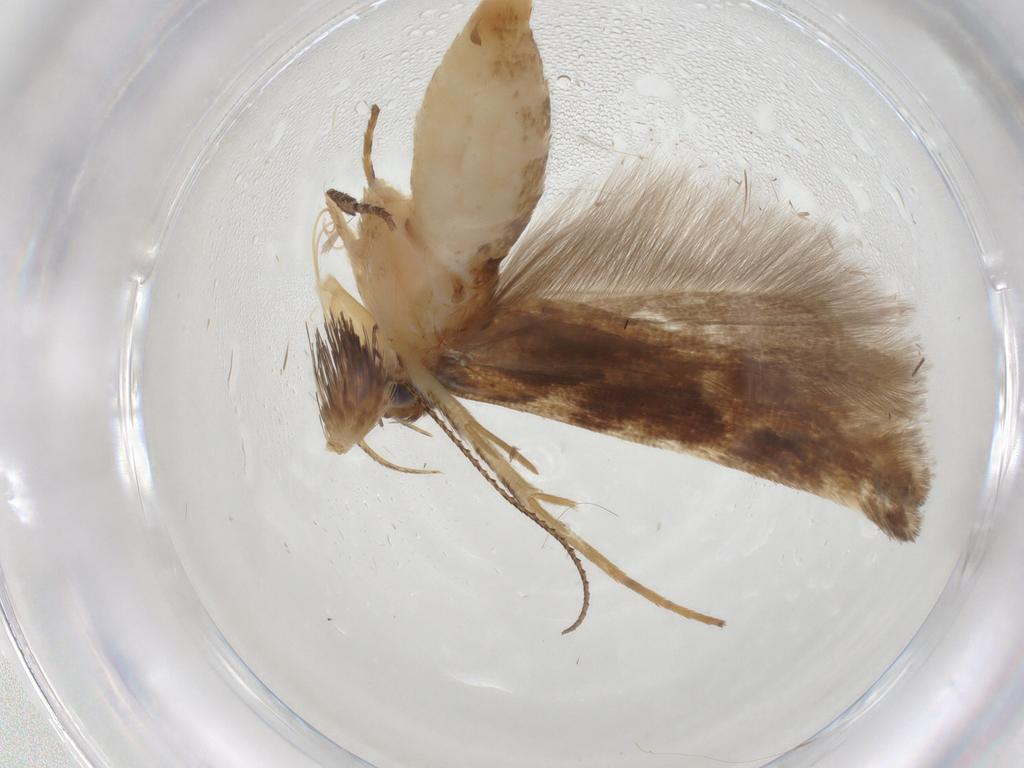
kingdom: Animalia
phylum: Arthropoda
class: Insecta
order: Lepidoptera
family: Gelechiidae
